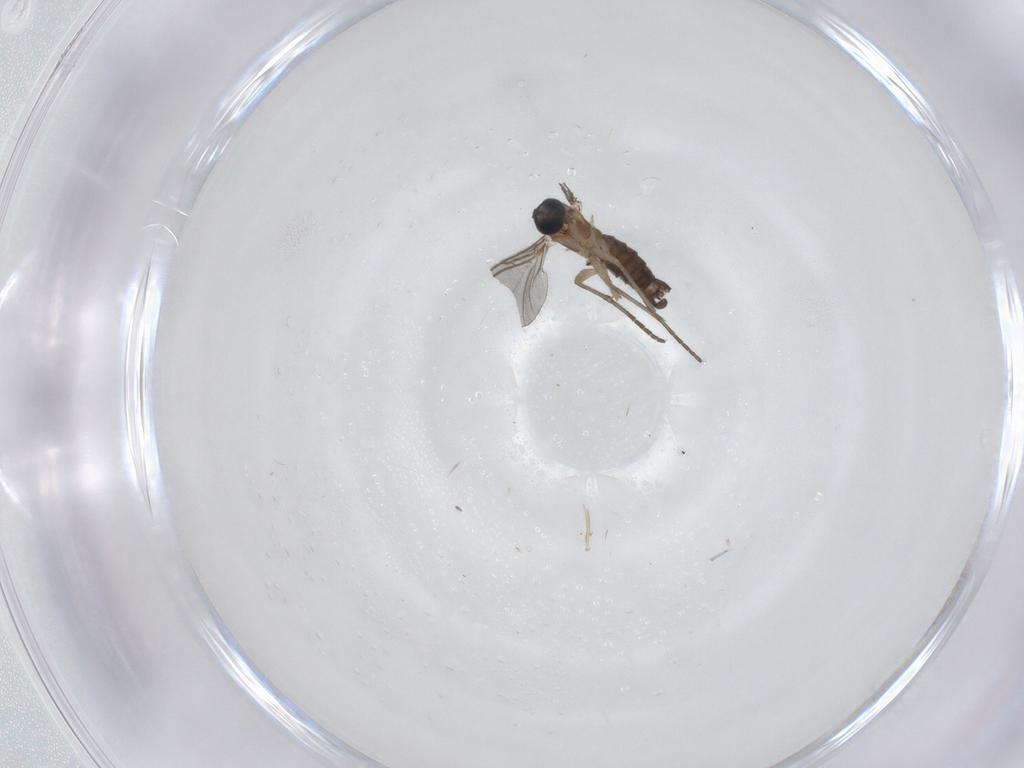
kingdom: Animalia
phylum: Arthropoda
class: Insecta
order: Diptera
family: Sciaridae
